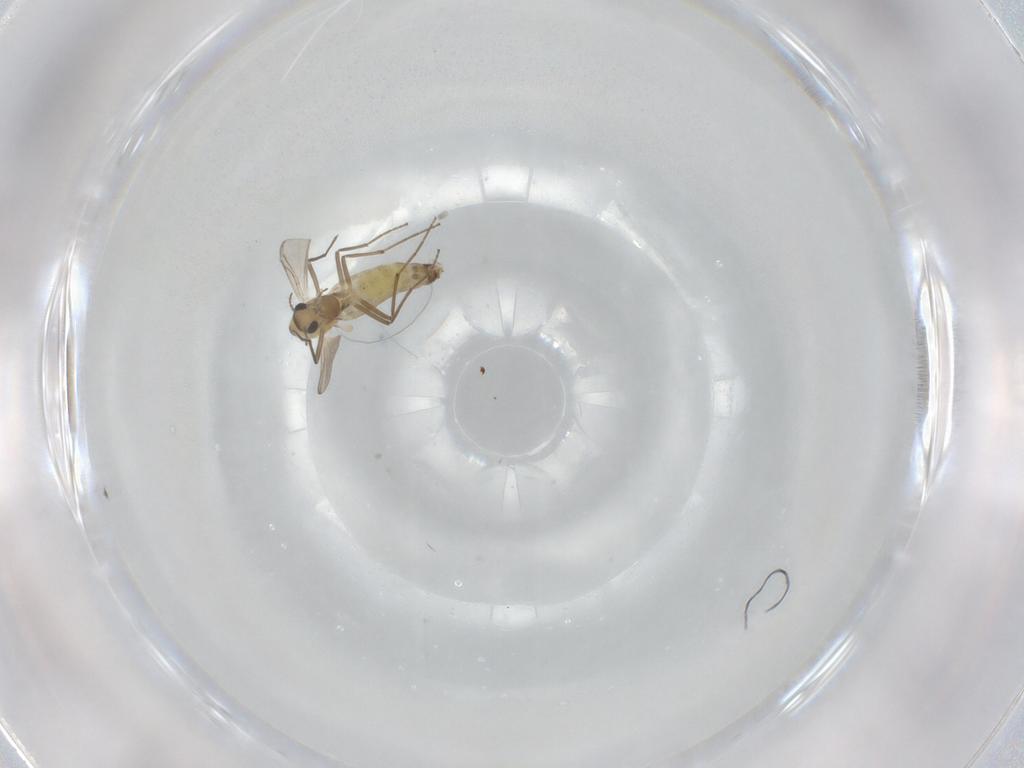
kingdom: Animalia
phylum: Arthropoda
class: Insecta
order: Diptera
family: Chironomidae
